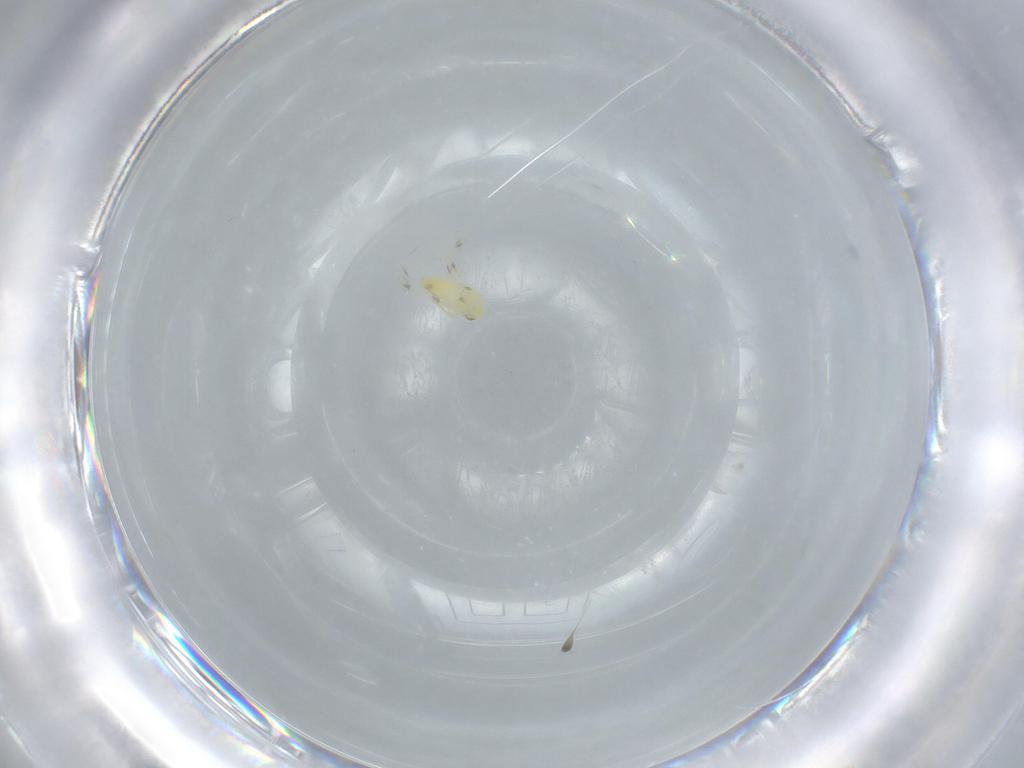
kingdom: Animalia
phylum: Arthropoda
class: Insecta
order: Hemiptera
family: Aleyrodidae
